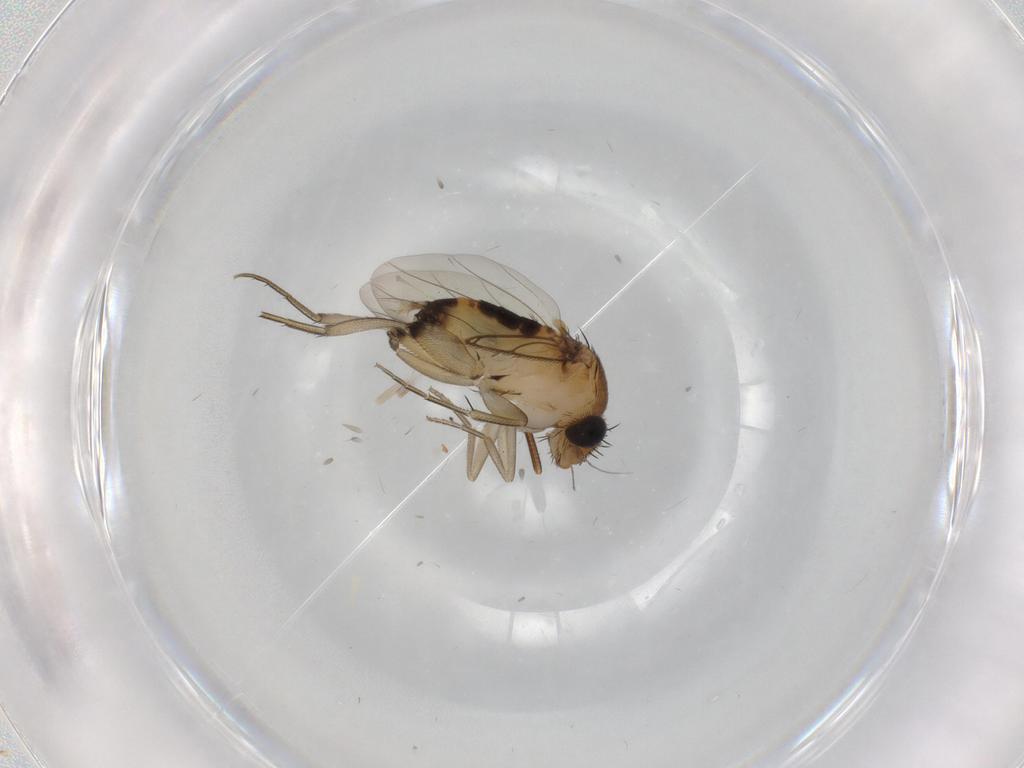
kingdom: Animalia
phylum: Arthropoda
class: Insecta
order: Diptera
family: Phoridae
